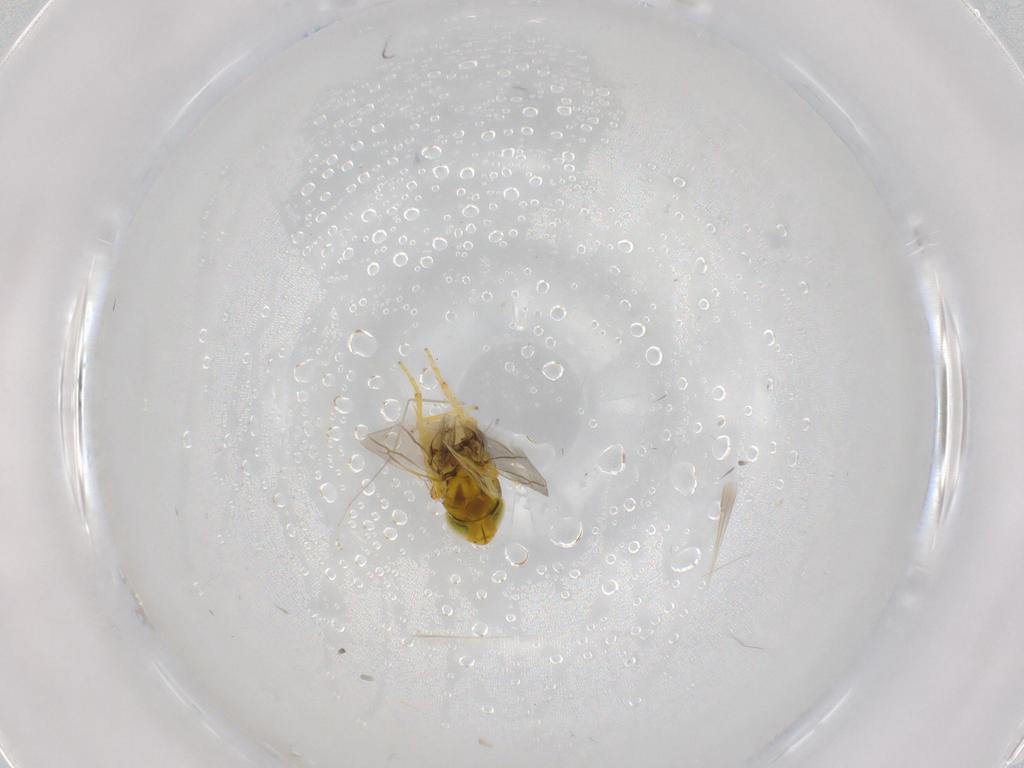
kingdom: Animalia
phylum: Arthropoda
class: Insecta
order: Hemiptera
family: Cicadellidae
